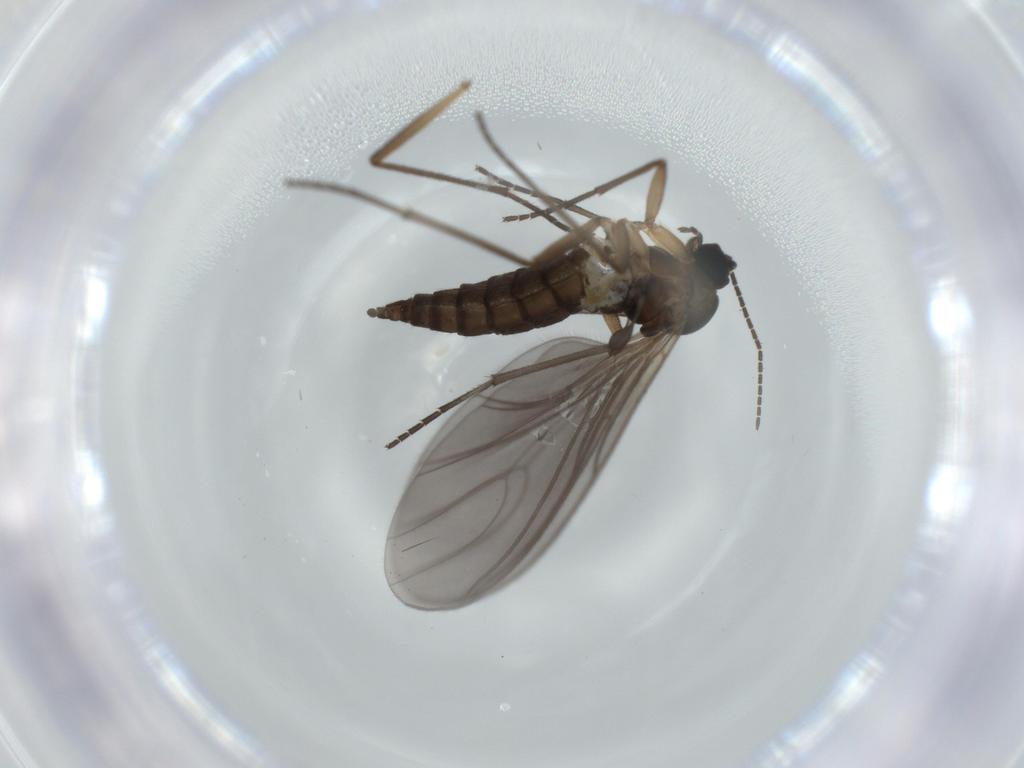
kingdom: Animalia
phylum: Arthropoda
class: Insecta
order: Diptera
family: Sciaridae
